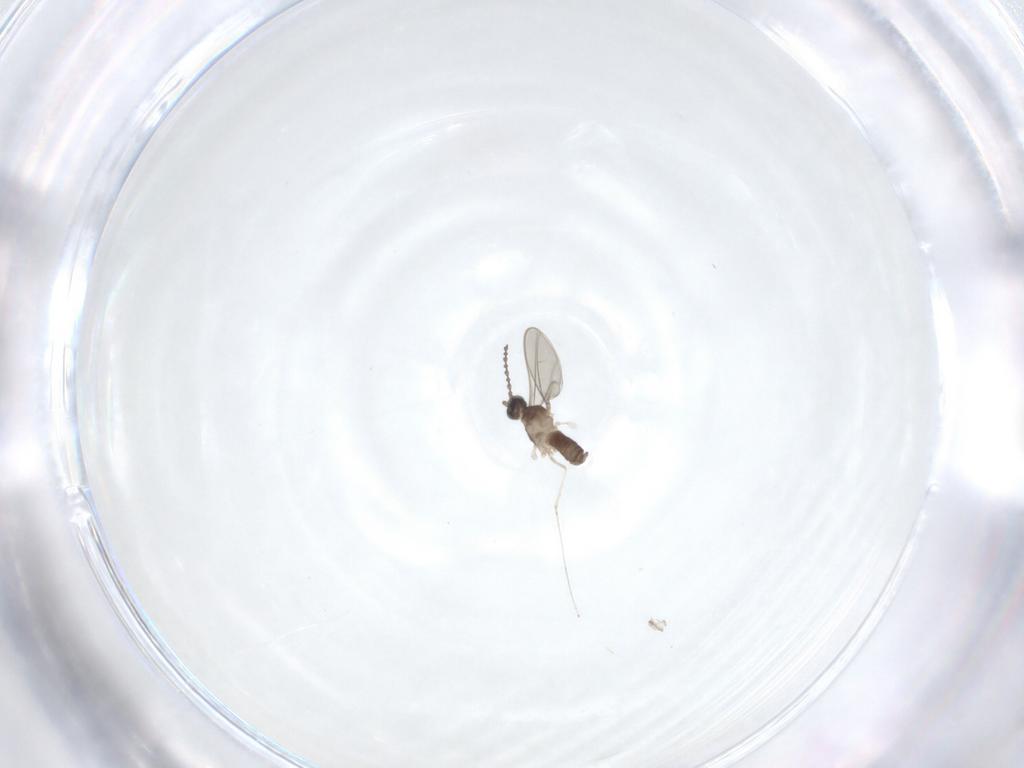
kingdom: Animalia
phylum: Arthropoda
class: Insecta
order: Diptera
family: Cecidomyiidae
